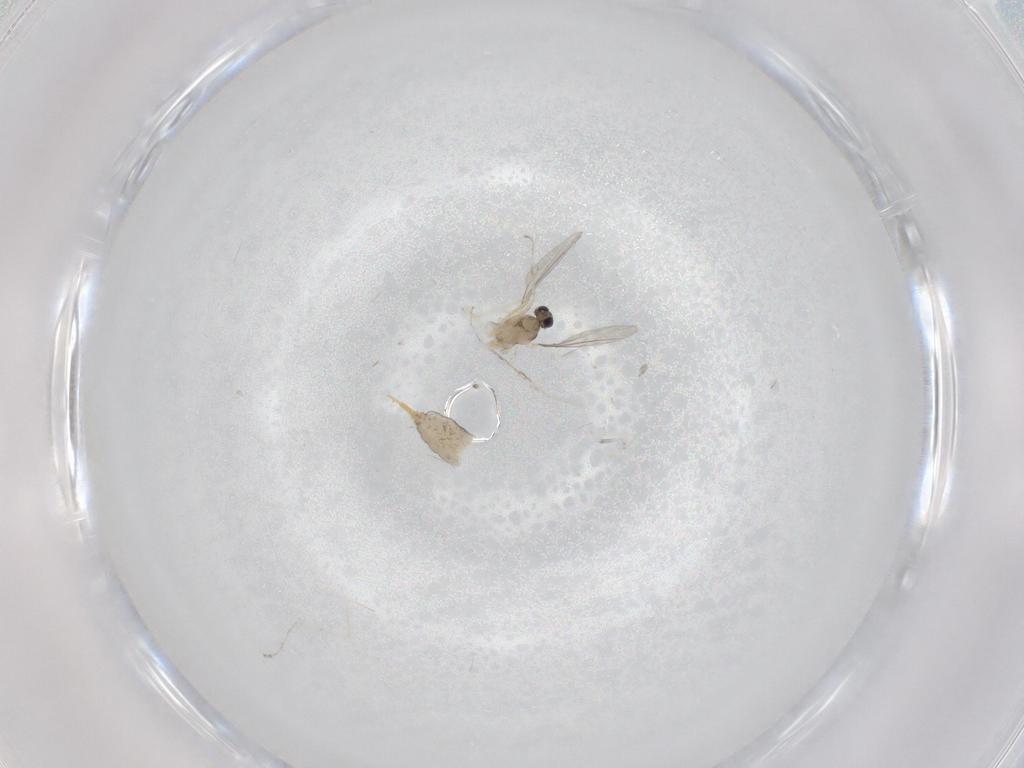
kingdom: Animalia
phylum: Arthropoda
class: Insecta
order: Diptera
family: Cecidomyiidae
